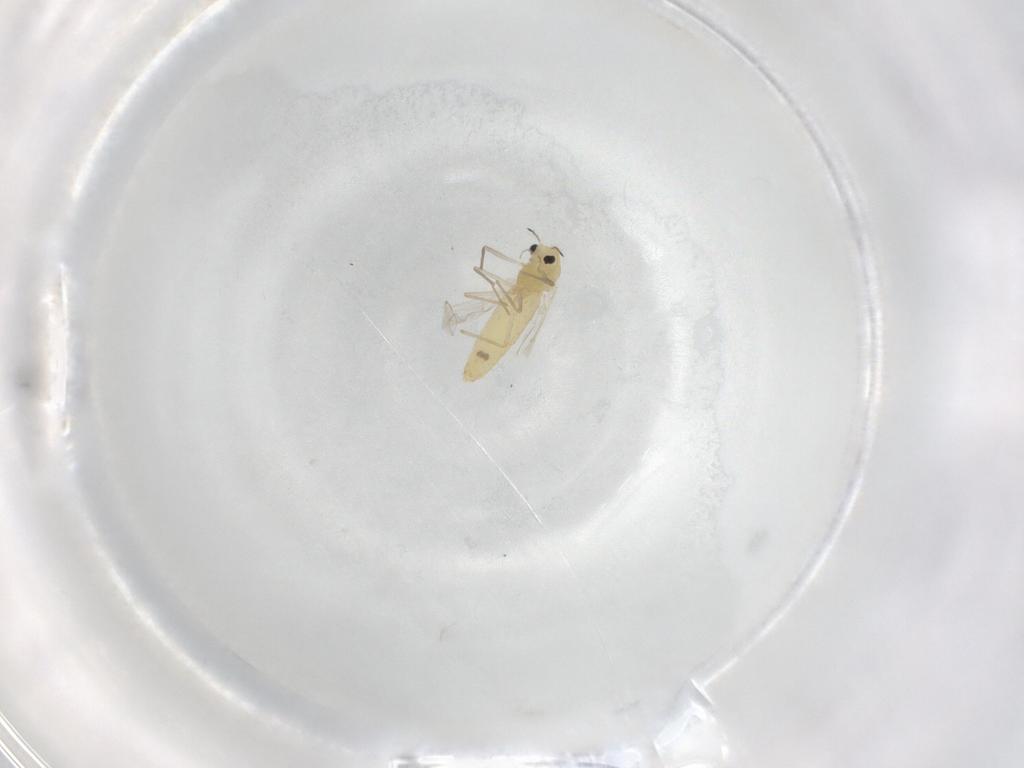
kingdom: Animalia
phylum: Arthropoda
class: Insecta
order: Diptera
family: Chironomidae
